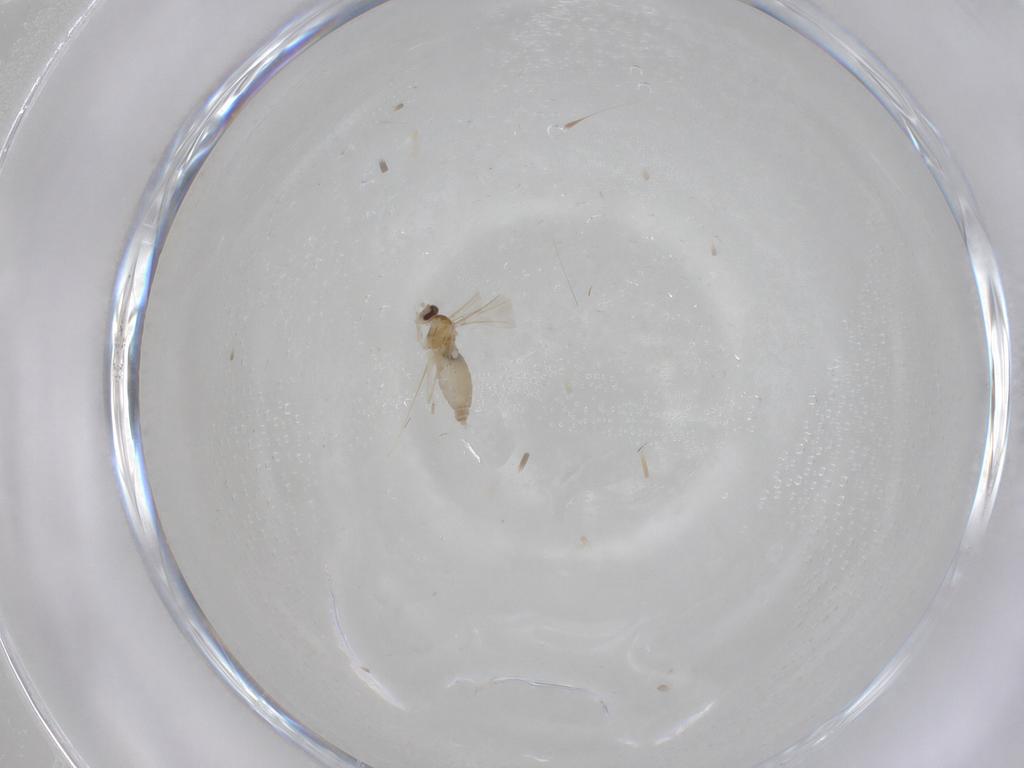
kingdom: Animalia
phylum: Arthropoda
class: Insecta
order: Diptera
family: Cecidomyiidae
